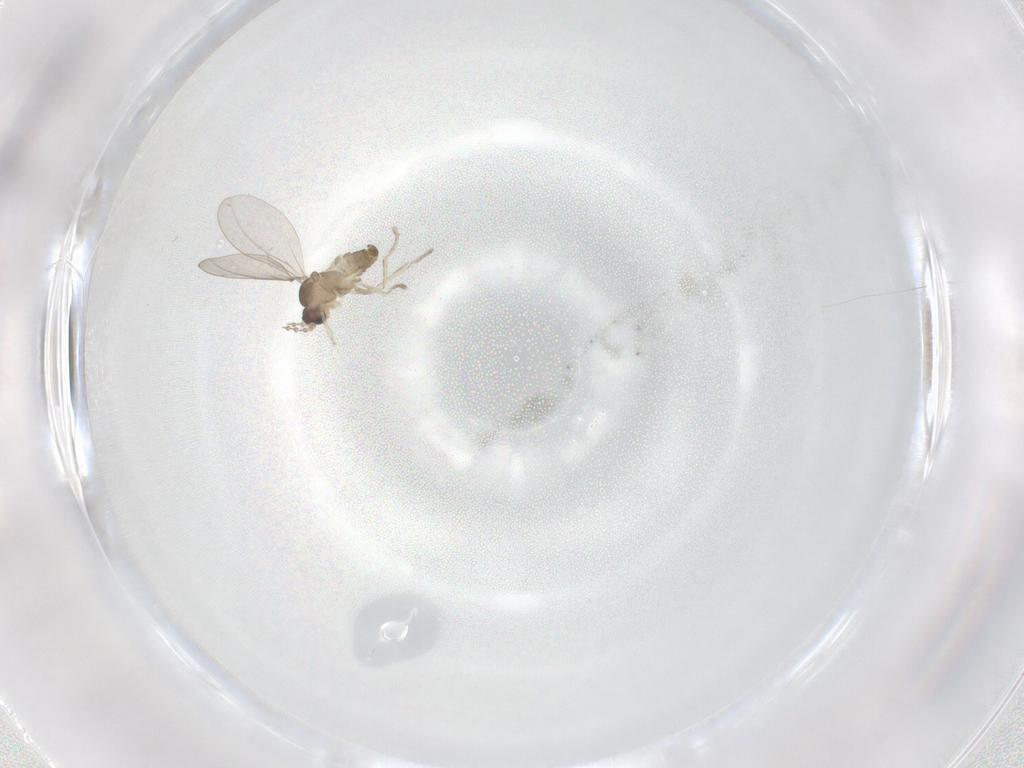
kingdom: Animalia
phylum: Arthropoda
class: Insecta
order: Diptera
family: Cecidomyiidae
